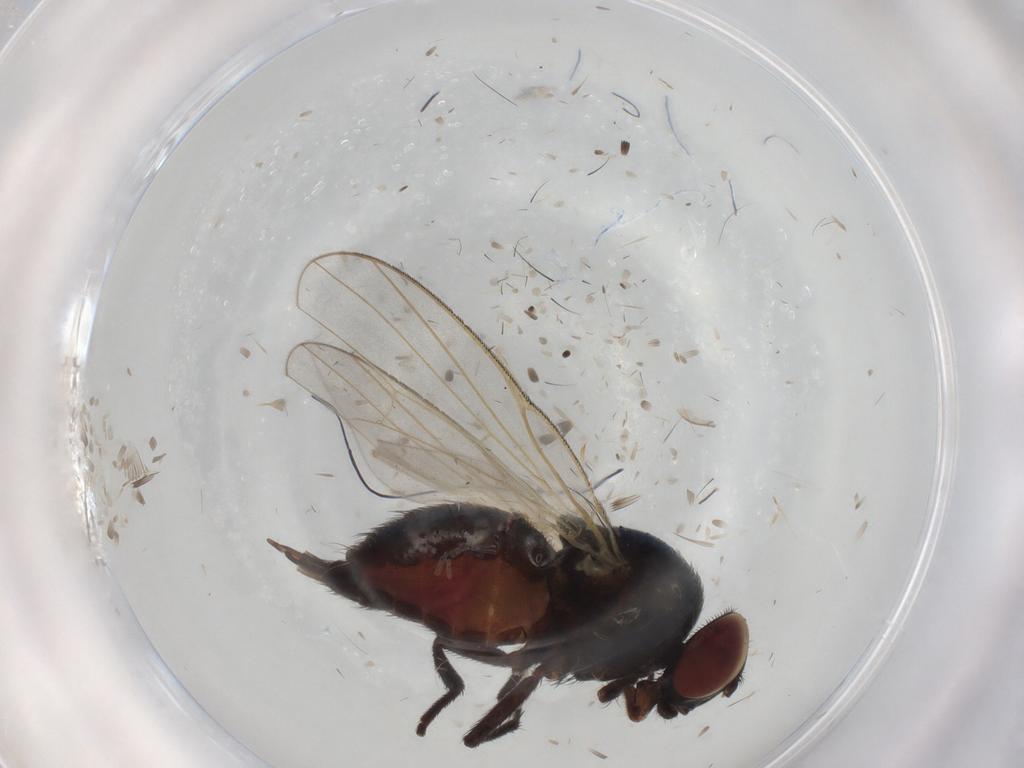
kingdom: Animalia
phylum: Arthropoda
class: Insecta
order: Diptera
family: Lonchaeidae
